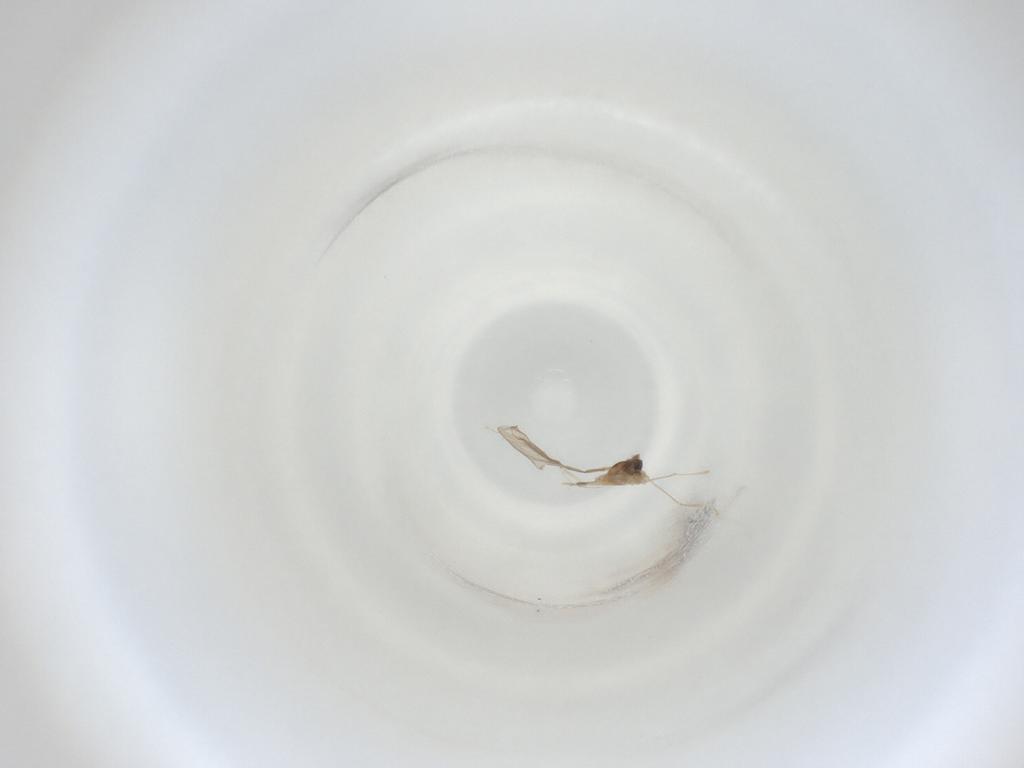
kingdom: Animalia
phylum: Arthropoda
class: Insecta
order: Diptera
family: Cecidomyiidae
